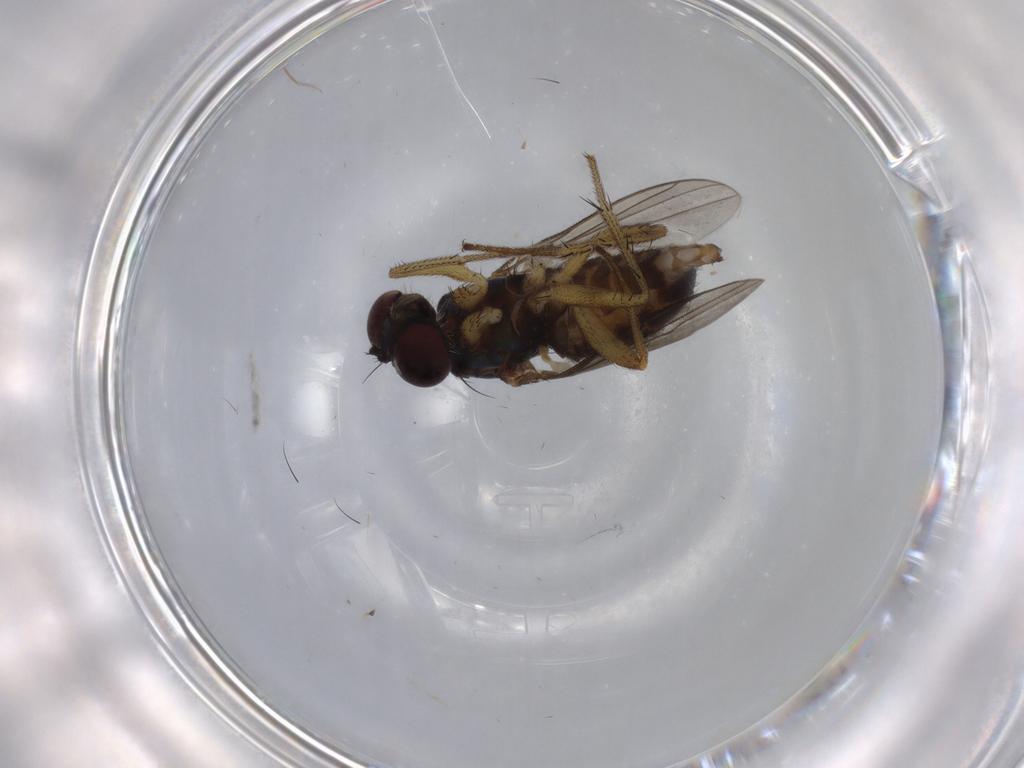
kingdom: Animalia
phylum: Arthropoda
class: Insecta
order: Diptera
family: Dolichopodidae
